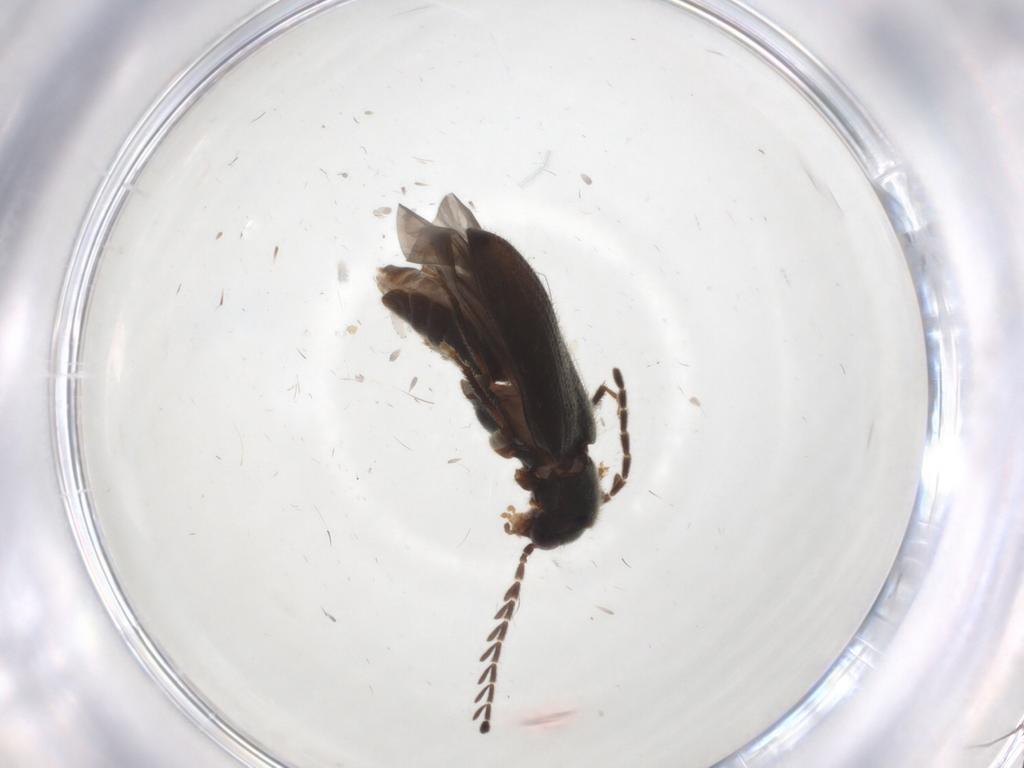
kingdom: Animalia
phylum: Arthropoda
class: Insecta
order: Coleoptera
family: Ptilodactylidae
